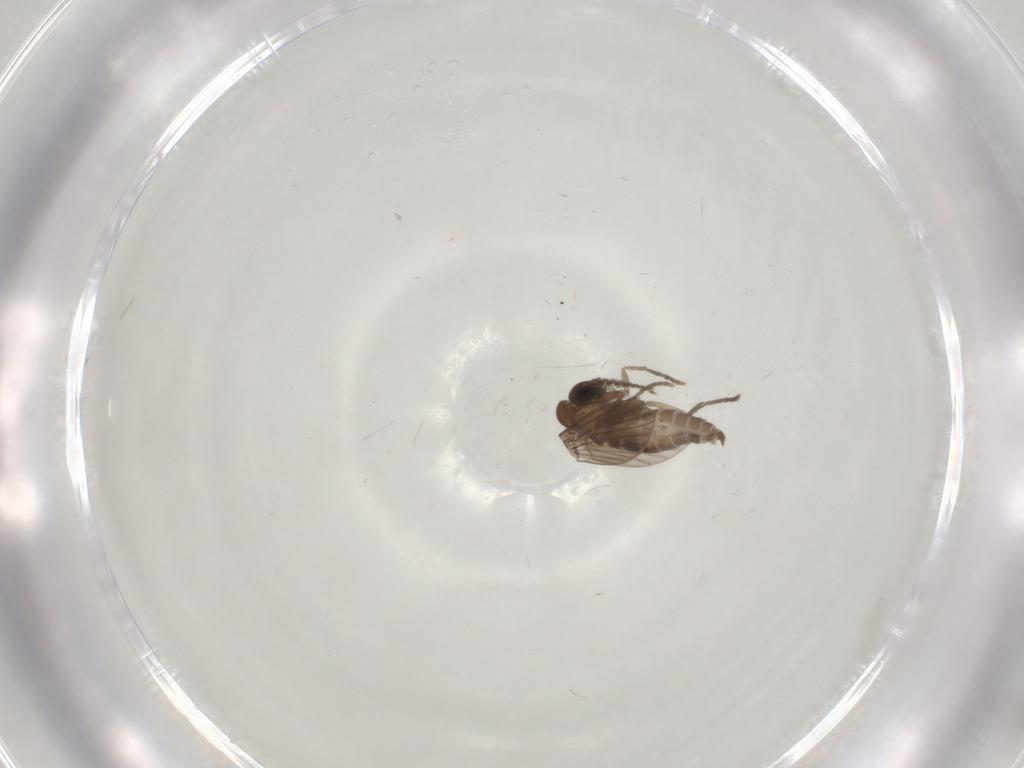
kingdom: Animalia
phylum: Arthropoda
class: Insecta
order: Diptera
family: Limoniidae
